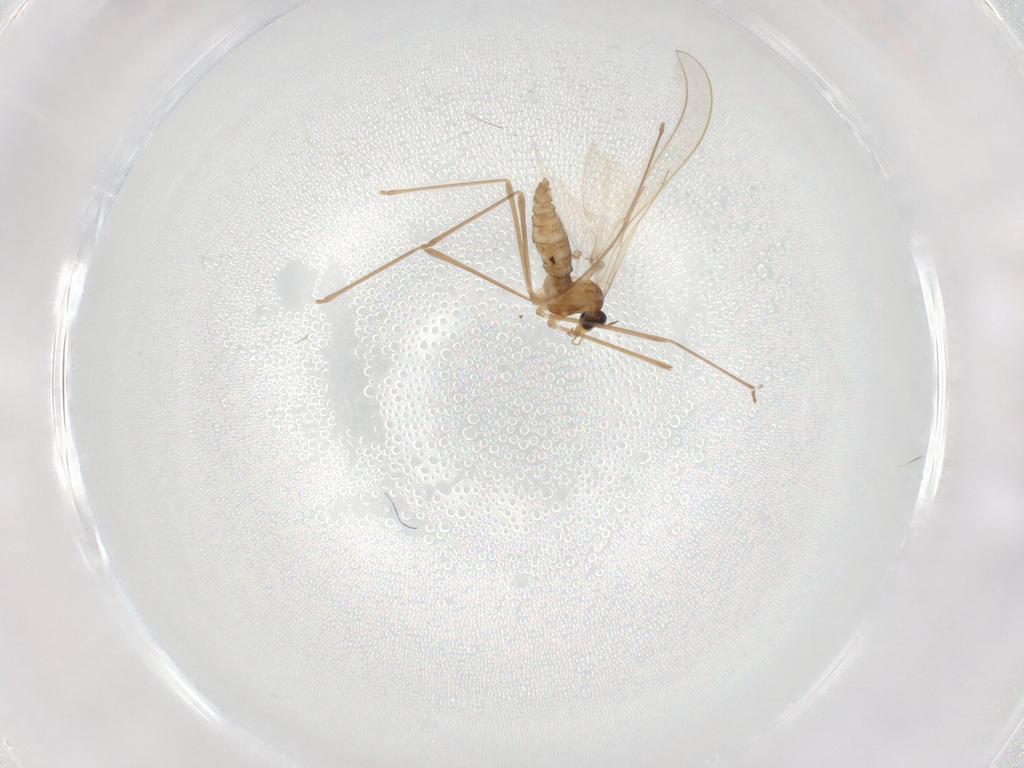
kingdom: Animalia
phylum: Arthropoda
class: Insecta
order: Diptera
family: Cecidomyiidae
